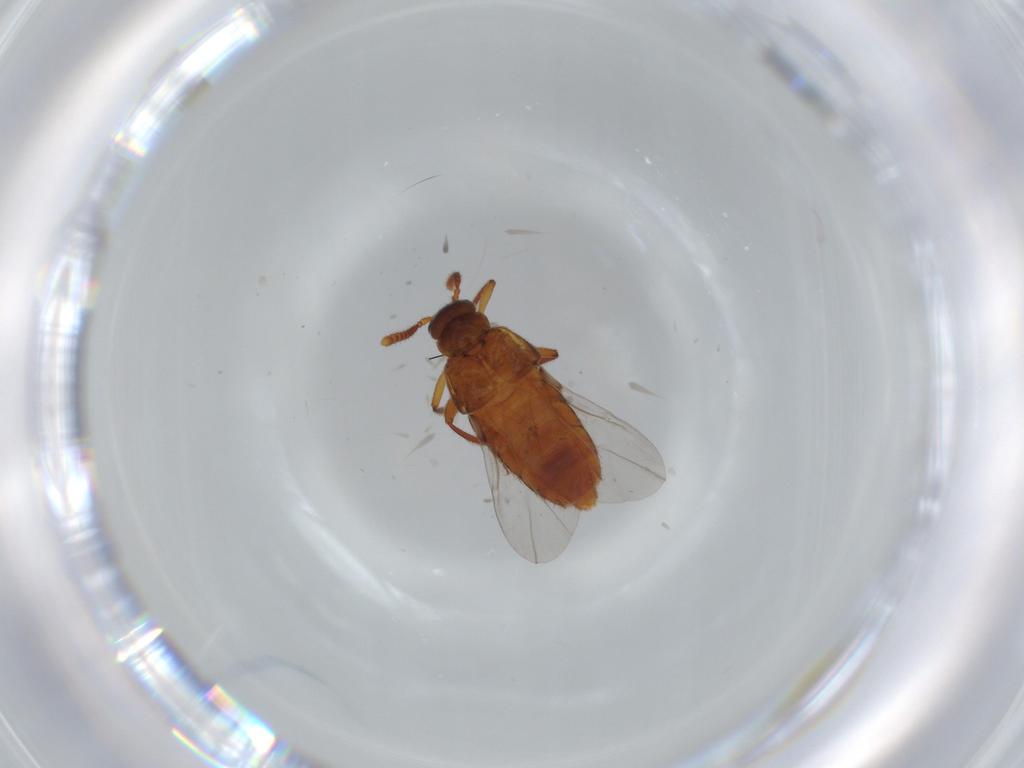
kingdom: Animalia
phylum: Arthropoda
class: Insecta
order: Coleoptera
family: Staphylinidae
